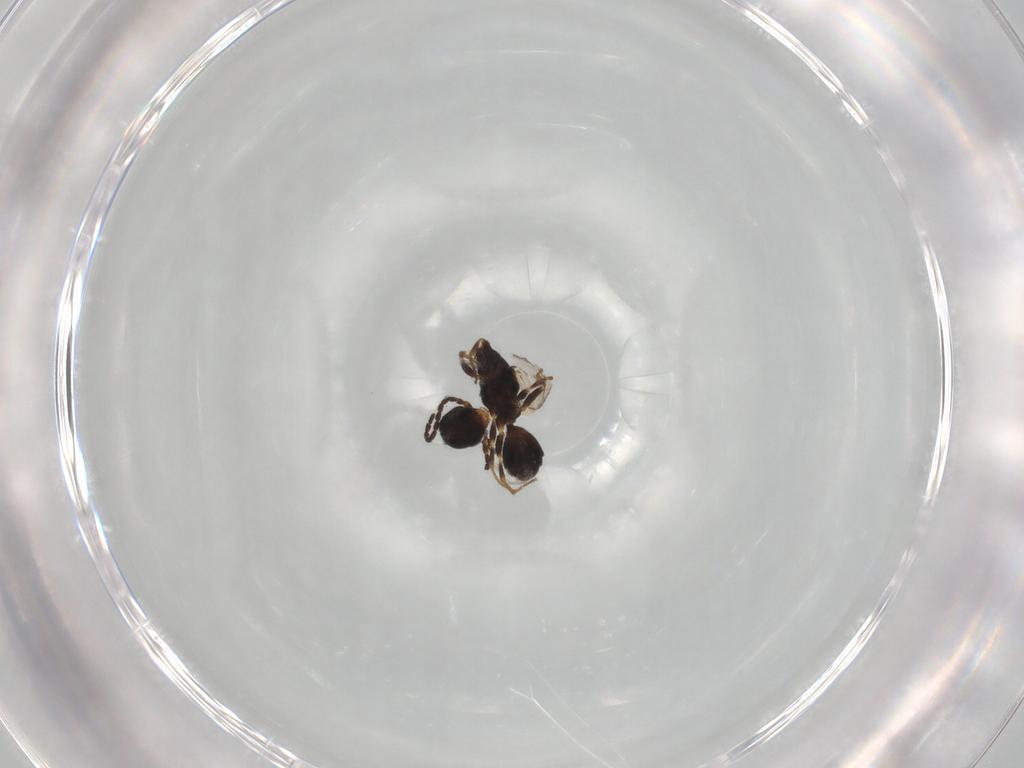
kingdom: Animalia
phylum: Arthropoda
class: Insecta
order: Hymenoptera
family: Bethylidae
